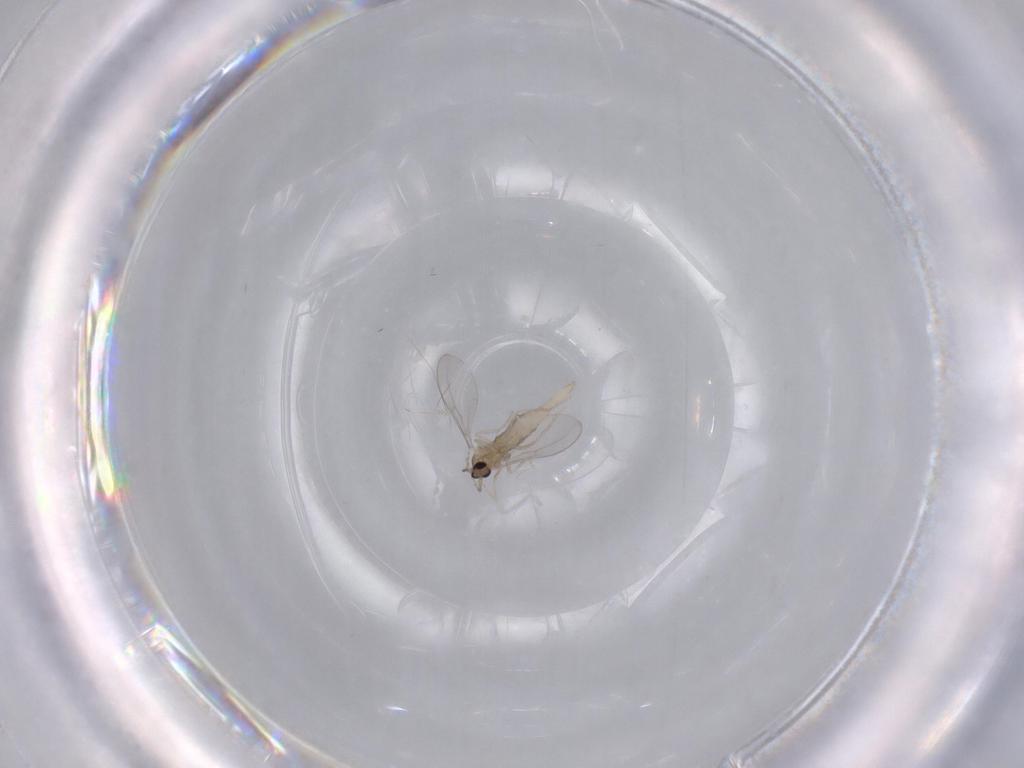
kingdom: Animalia
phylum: Arthropoda
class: Insecta
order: Diptera
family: Cecidomyiidae
